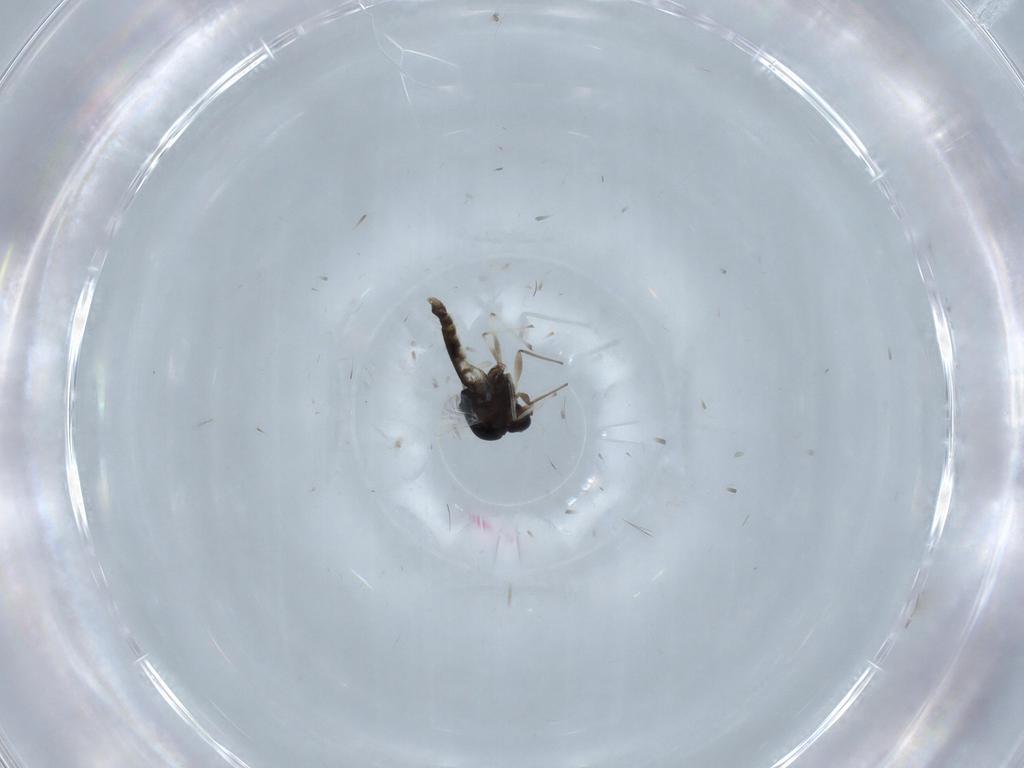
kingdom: Animalia
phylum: Arthropoda
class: Insecta
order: Diptera
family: Chironomidae
